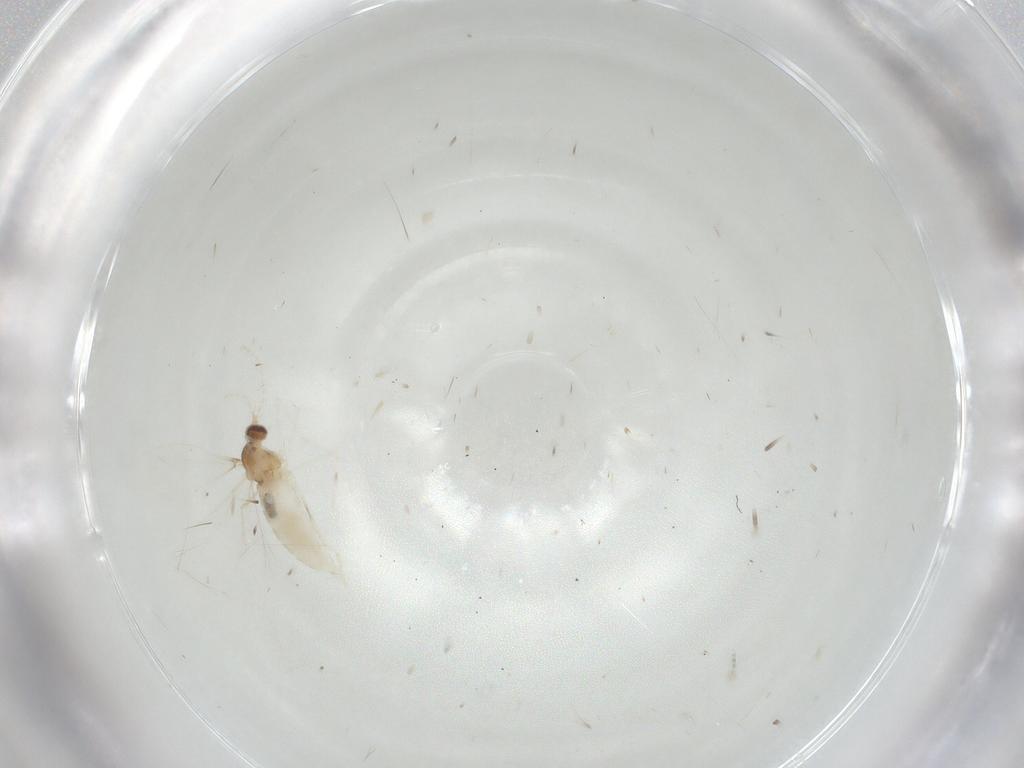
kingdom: Animalia
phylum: Arthropoda
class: Insecta
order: Diptera
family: Cecidomyiidae
